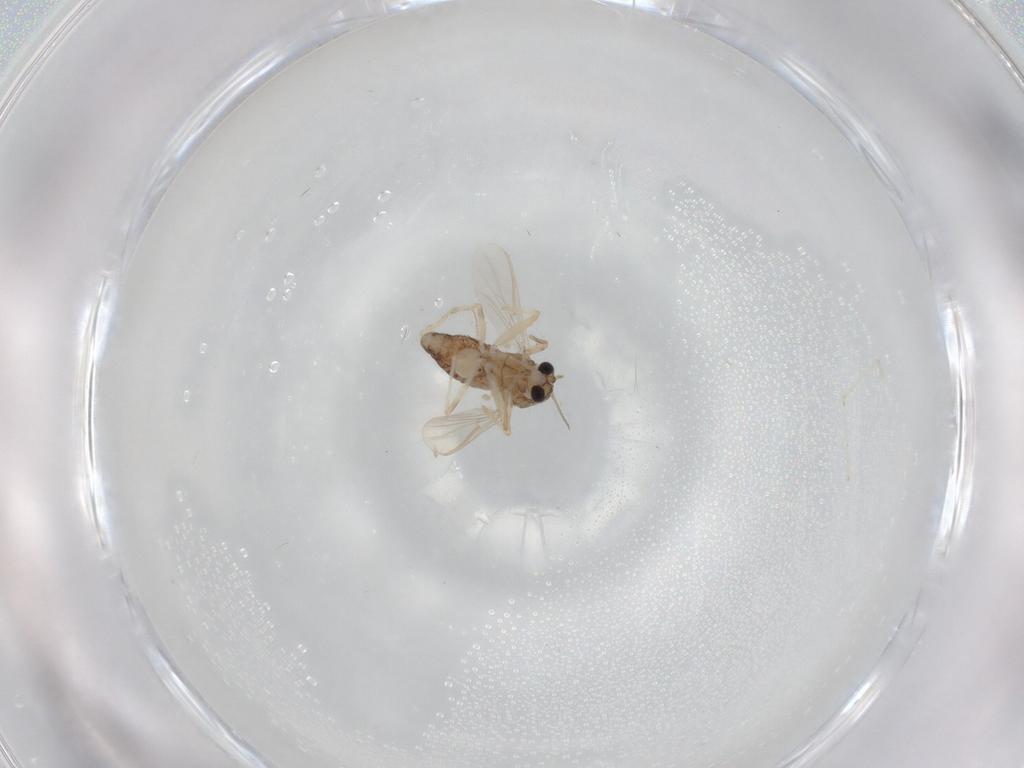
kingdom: Animalia
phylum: Arthropoda
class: Insecta
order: Diptera
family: Chironomidae
